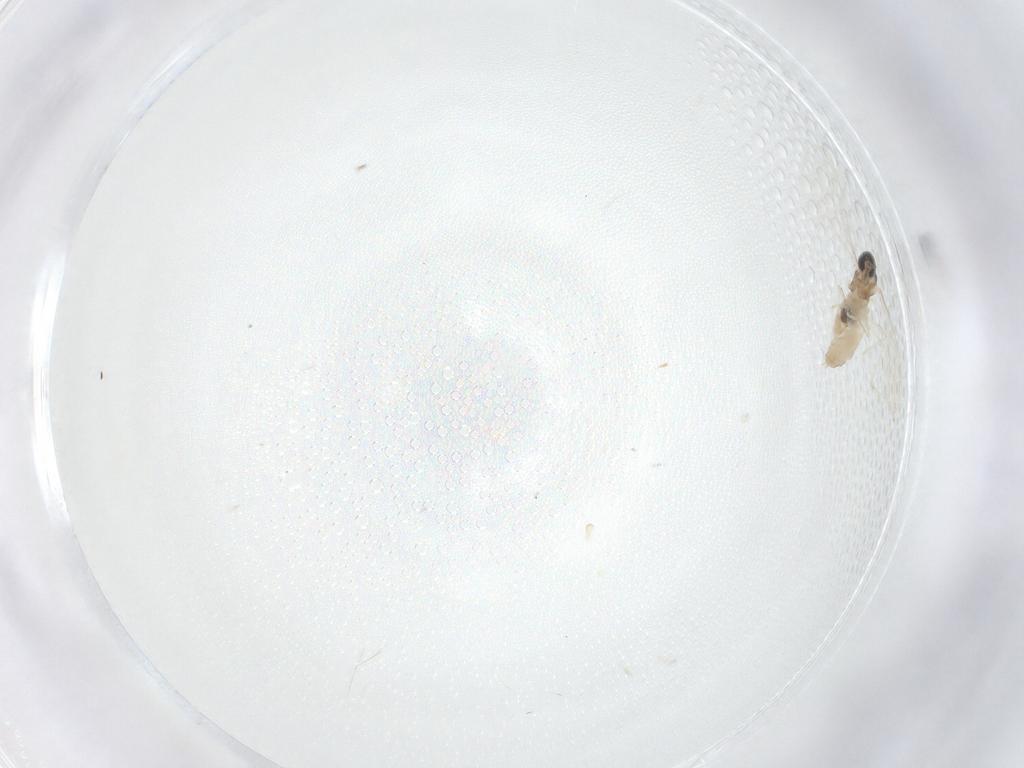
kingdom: Animalia
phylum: Arthropoda
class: Insecta
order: Diptera
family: Sciaridae
